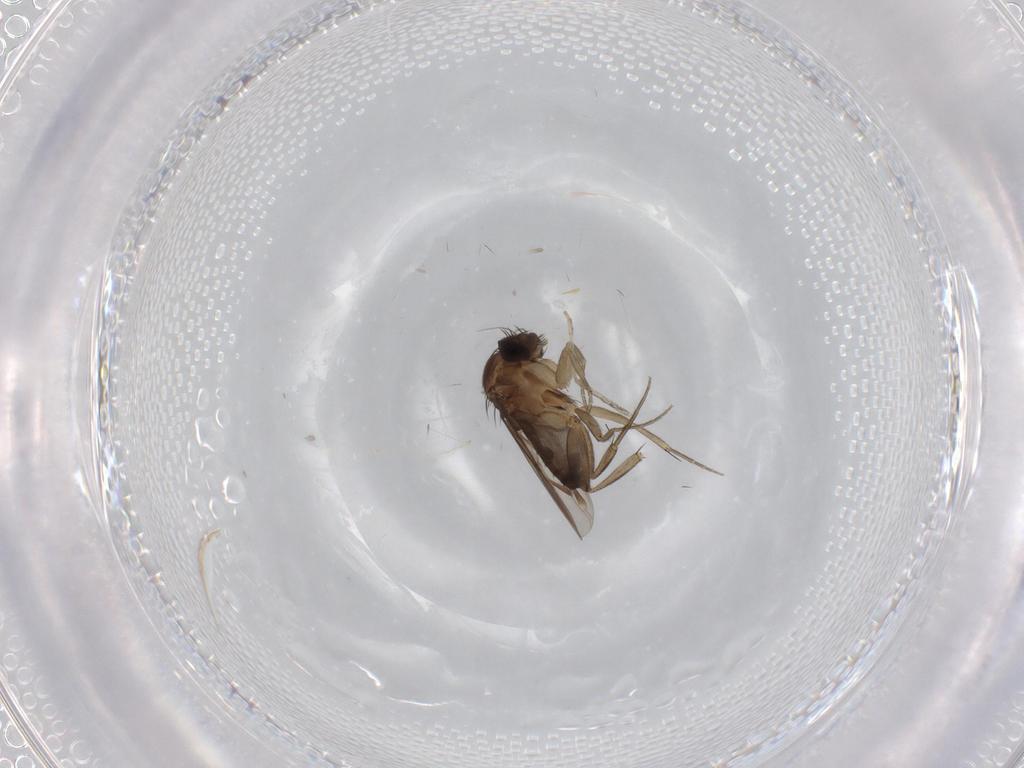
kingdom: Animalia
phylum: Arthropoda
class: Insecta
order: Diptera
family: Phoridae
